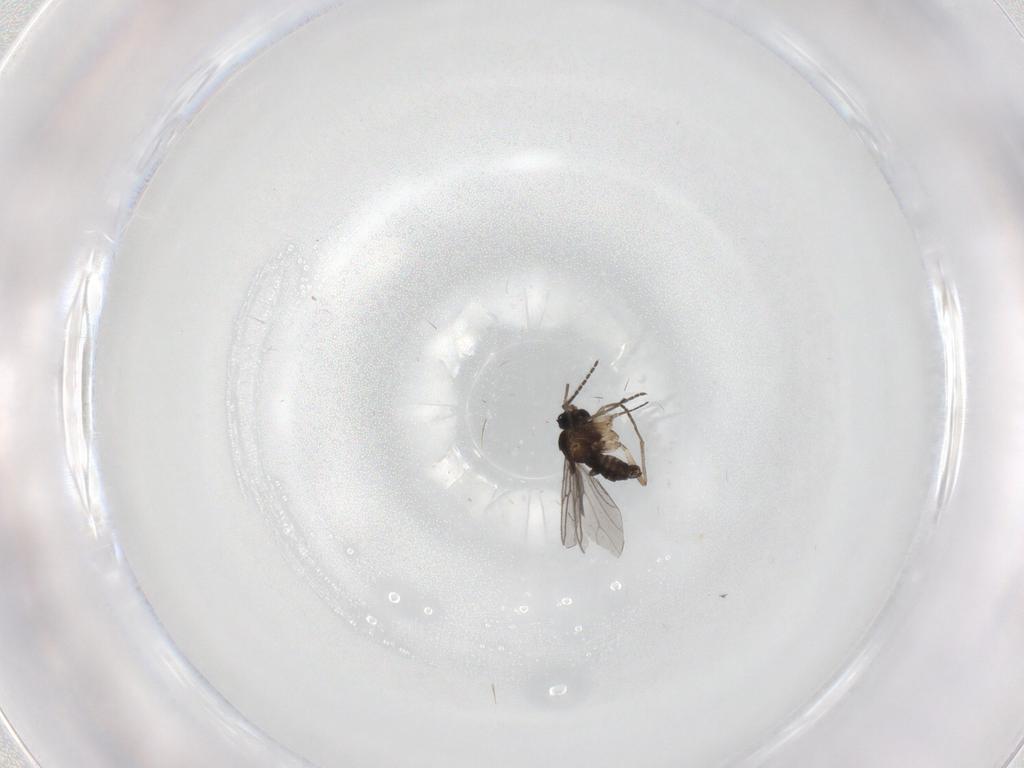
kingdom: Animalia
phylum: Arthropoda
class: Insecta
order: Diptera
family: Sciaridae
